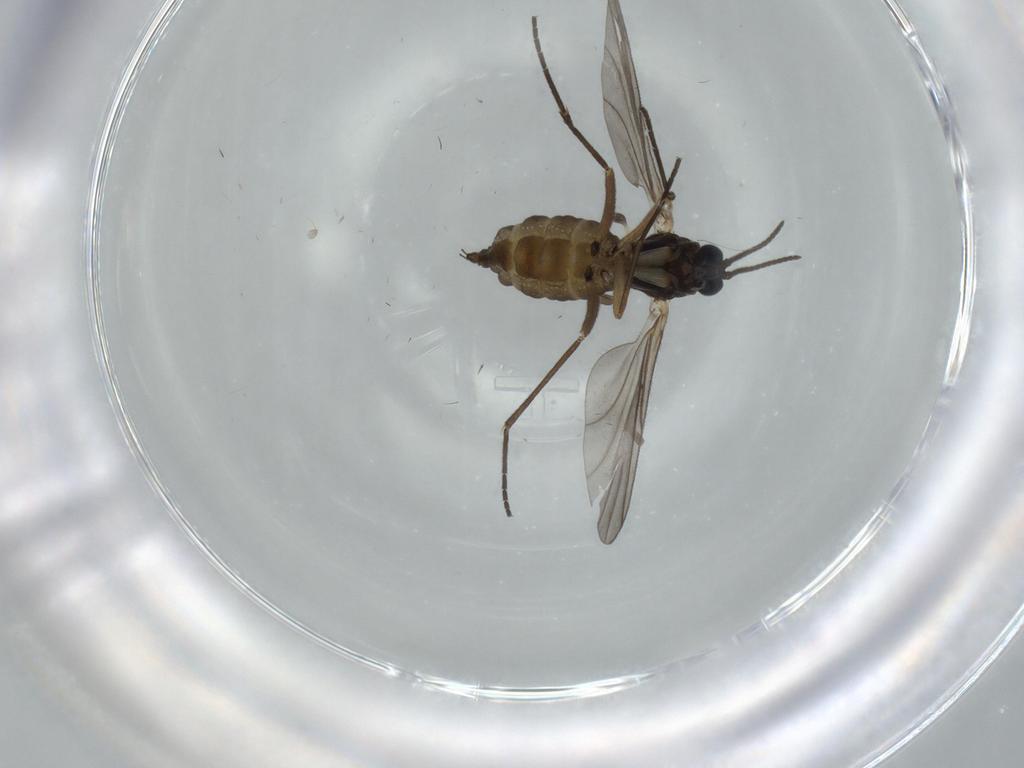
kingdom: Animalia
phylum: Arthropoda
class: Insecta
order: Diptera
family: Sciaridae
